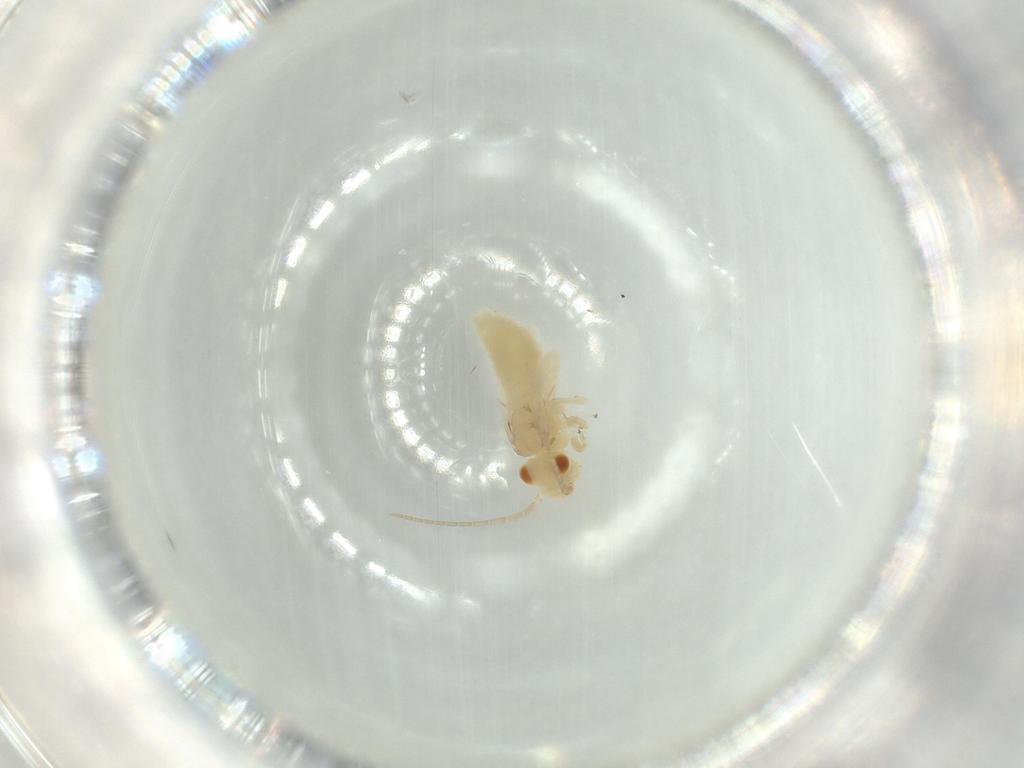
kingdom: Animalia
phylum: Arthropoda
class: Insecta
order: Psocodea
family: Caeciliusidae
